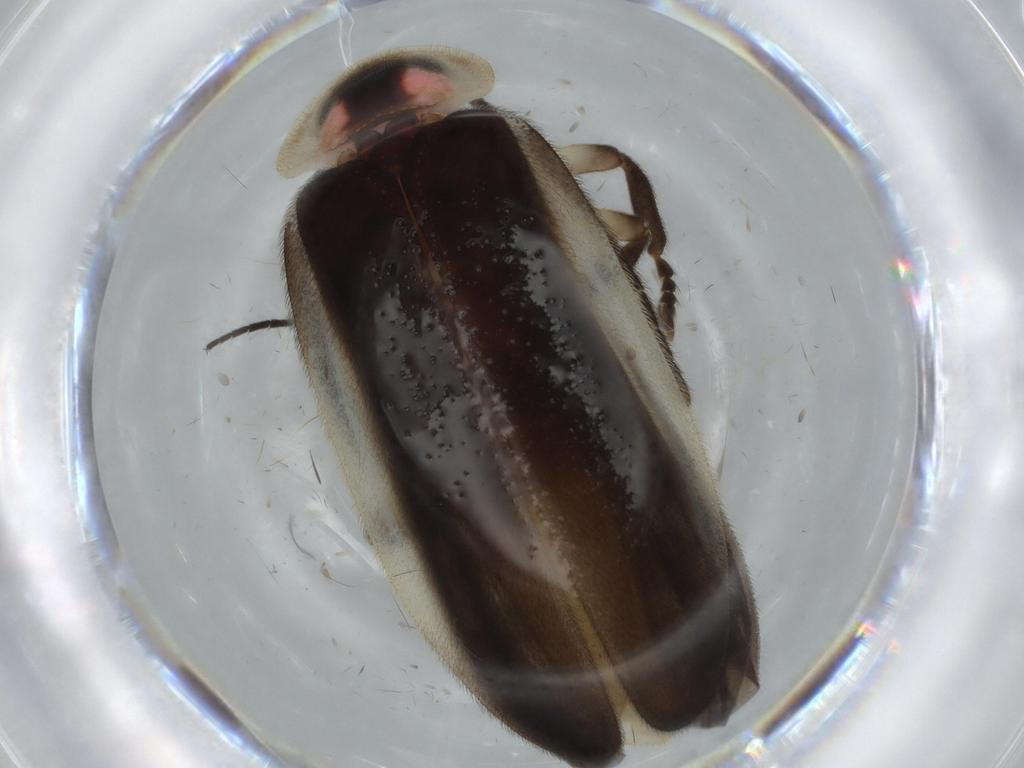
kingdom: Animalia
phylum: Arthropoda
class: Insecta
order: Coleoptera
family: Lampyridae
